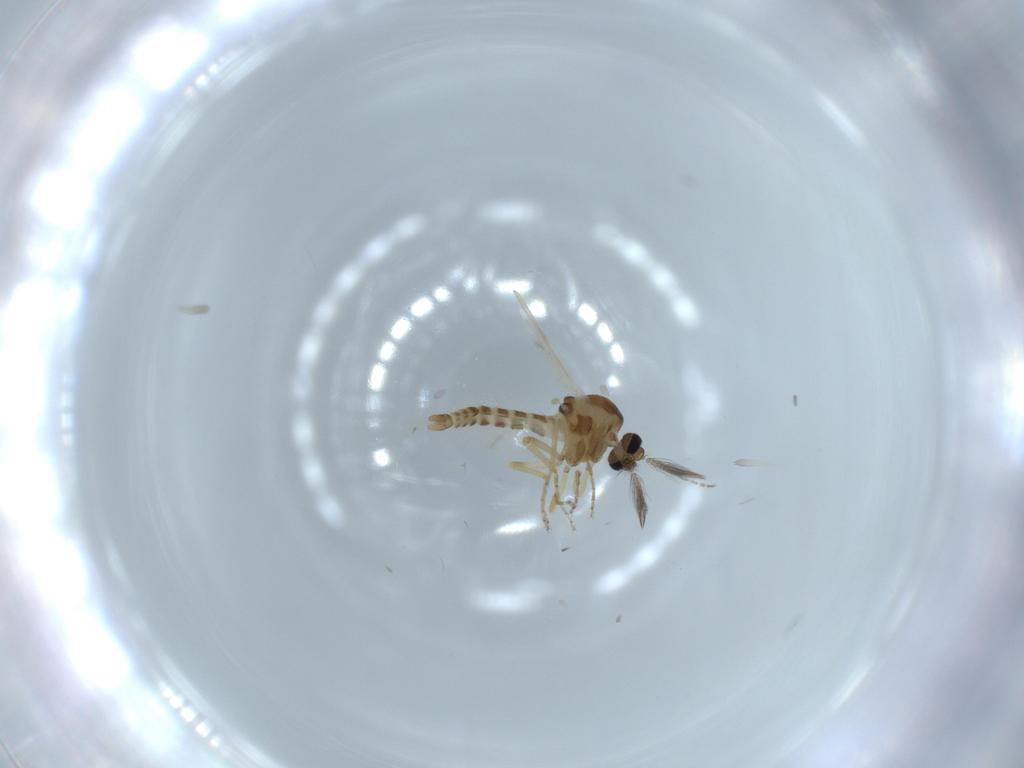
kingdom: Animalia
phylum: Arthropoda
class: Insecta
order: Diptera
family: Ceratopogonidae
